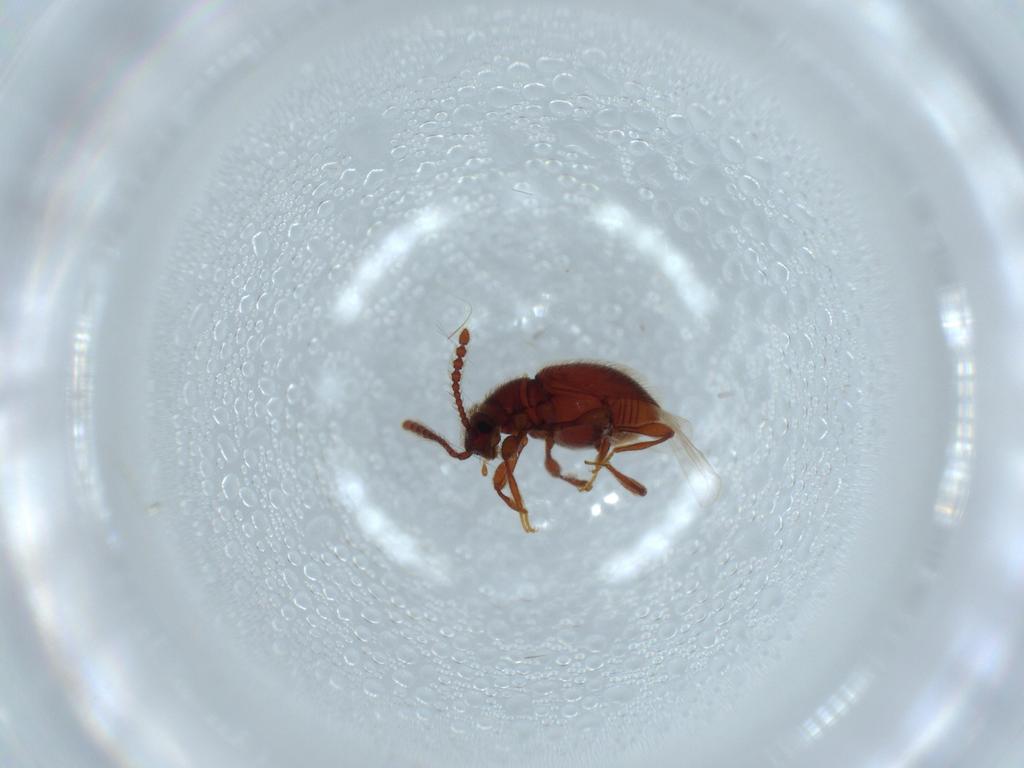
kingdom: Animalia
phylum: Arthropoda
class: Insecta
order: Coleoptera
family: Staphylinidae
